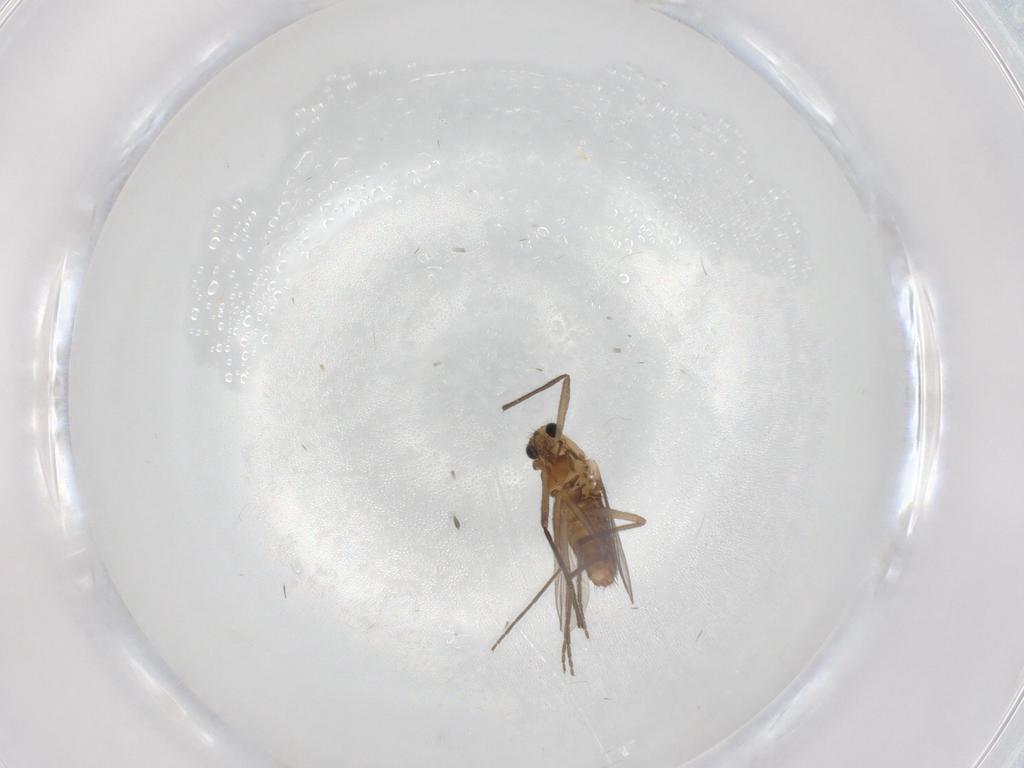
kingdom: Animalia
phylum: Arthropoda
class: Insecta
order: Diptera
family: Chironomidae
